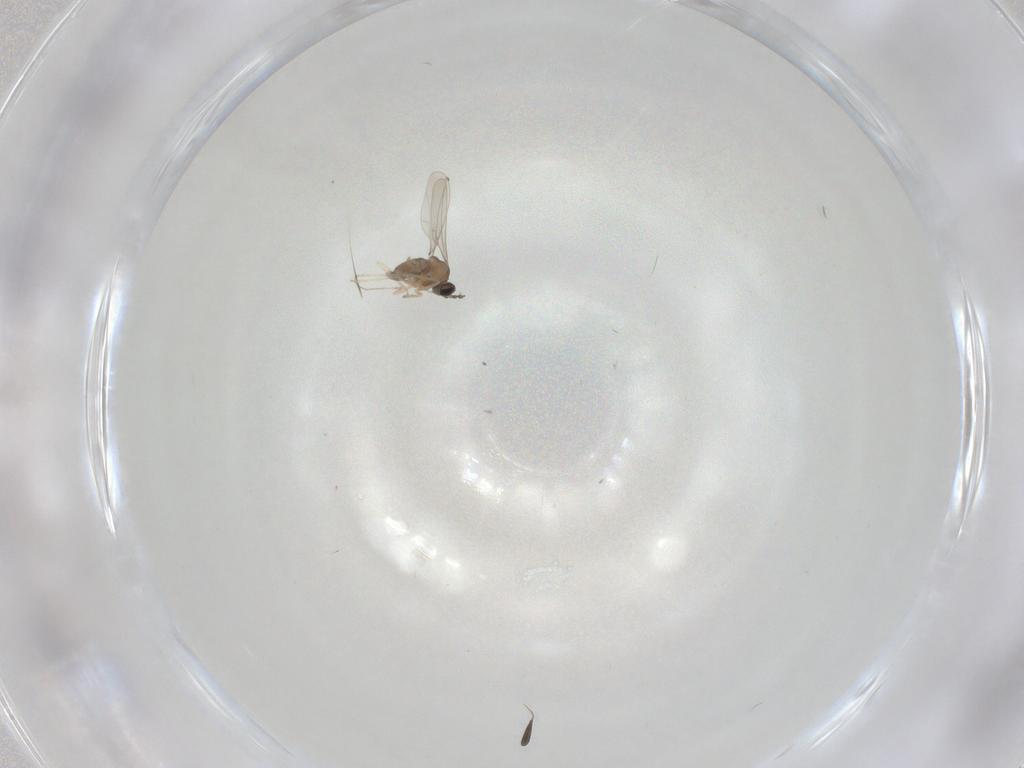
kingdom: Animalia
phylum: Arthropoda
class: Insecta
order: Diptera
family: Cecidomyiidae
